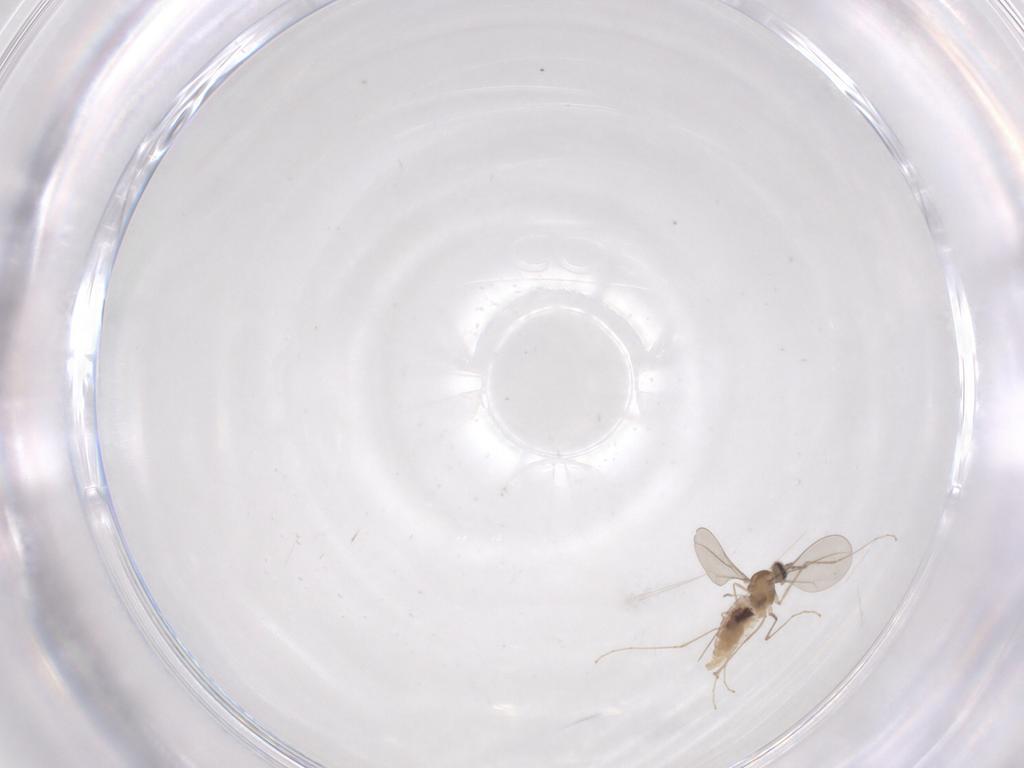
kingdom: Animalia
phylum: Arthropoda
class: Insecta
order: Diptera
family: Cecidomyiidae
